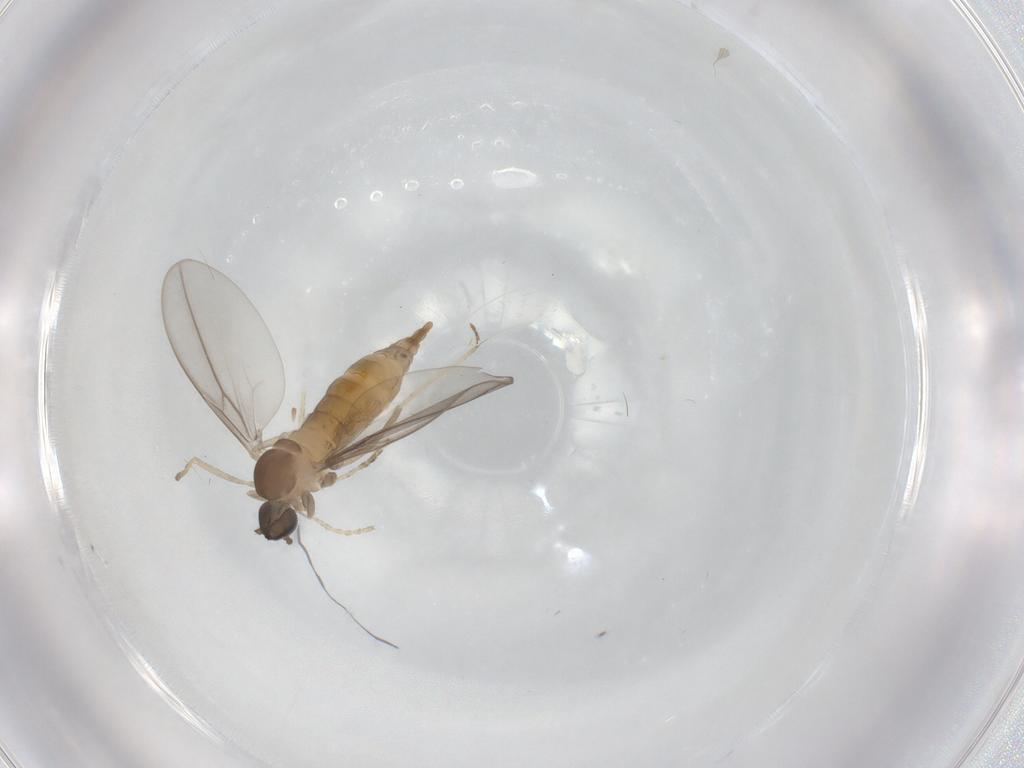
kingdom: Animalia
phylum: Arthropoda
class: Insecta
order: Diptera
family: Cecidomyiidae
